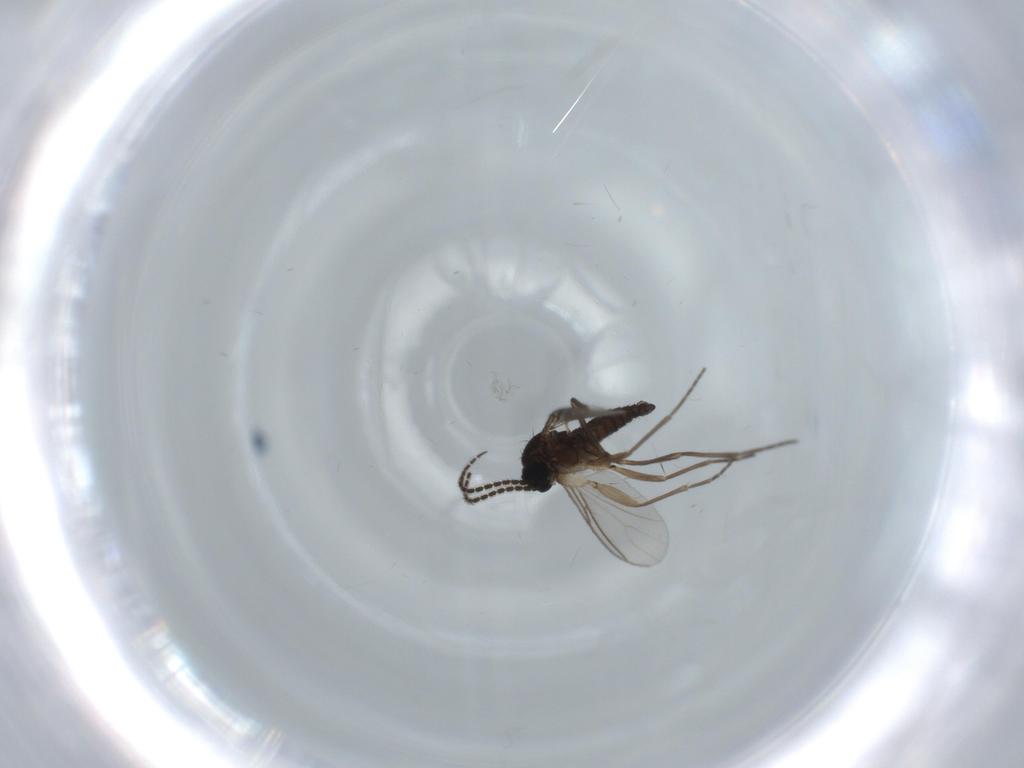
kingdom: Animalia
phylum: Arthropoda
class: Insecta
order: Diptera
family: Sciaridae
